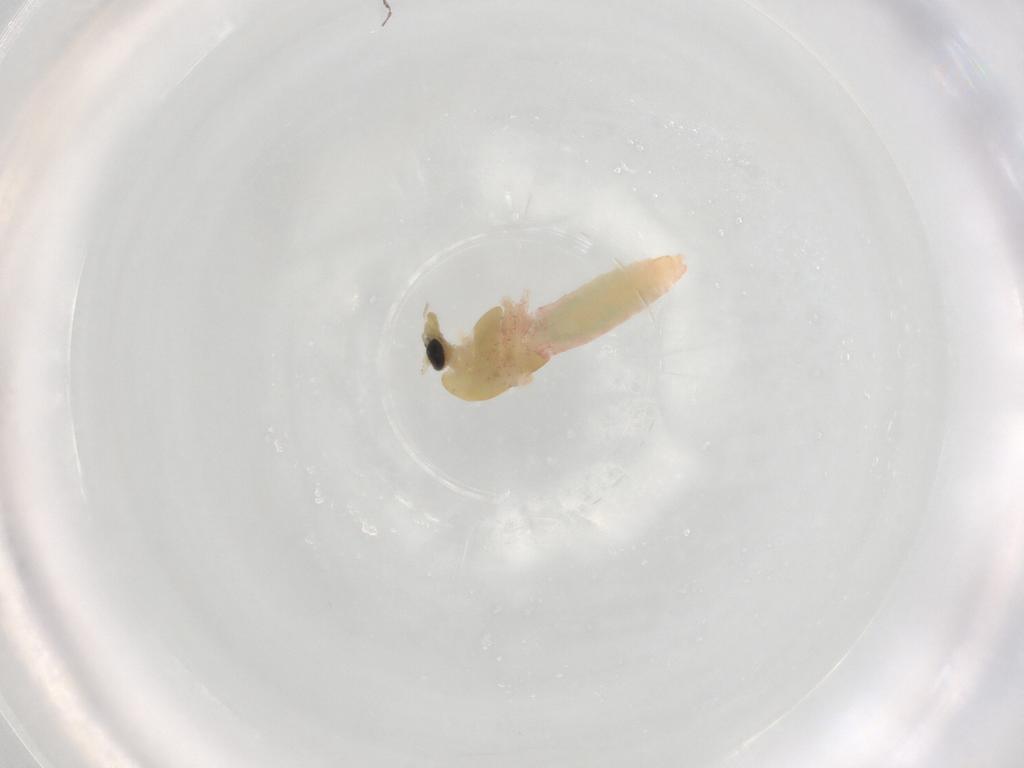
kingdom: Animalia
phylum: Arthropoda
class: Insecta
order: Diptera
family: Chironomidae
